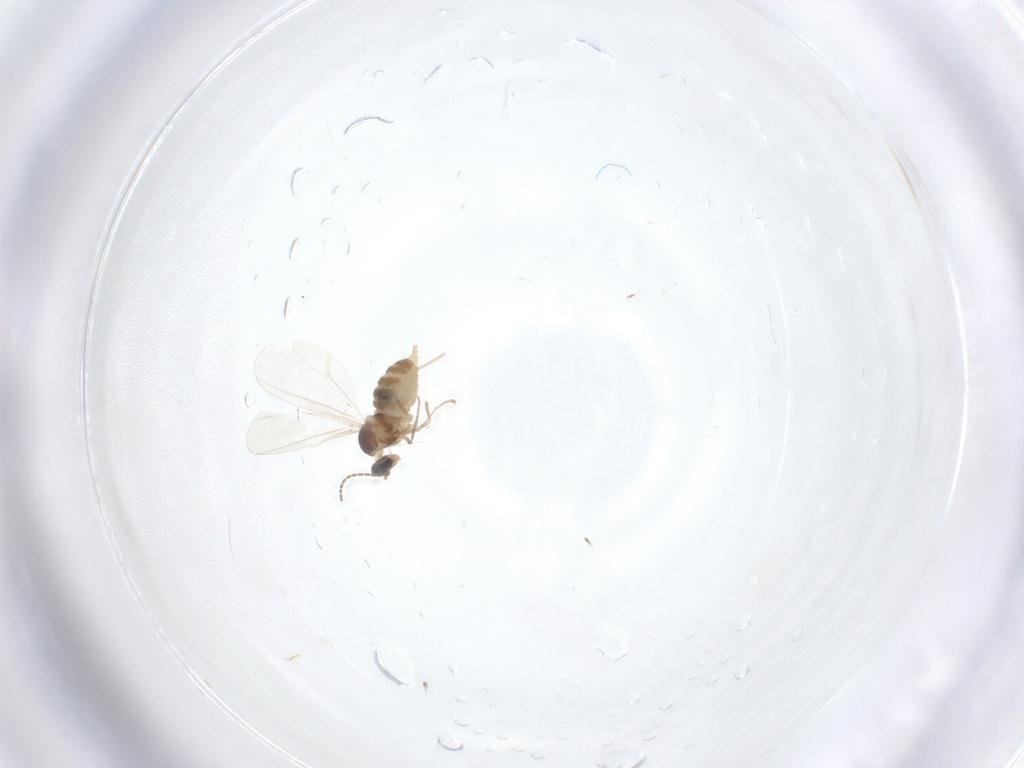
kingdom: Animalia
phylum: Arthropoda
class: Insecta
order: Diptera
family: Cecidomyiidae
